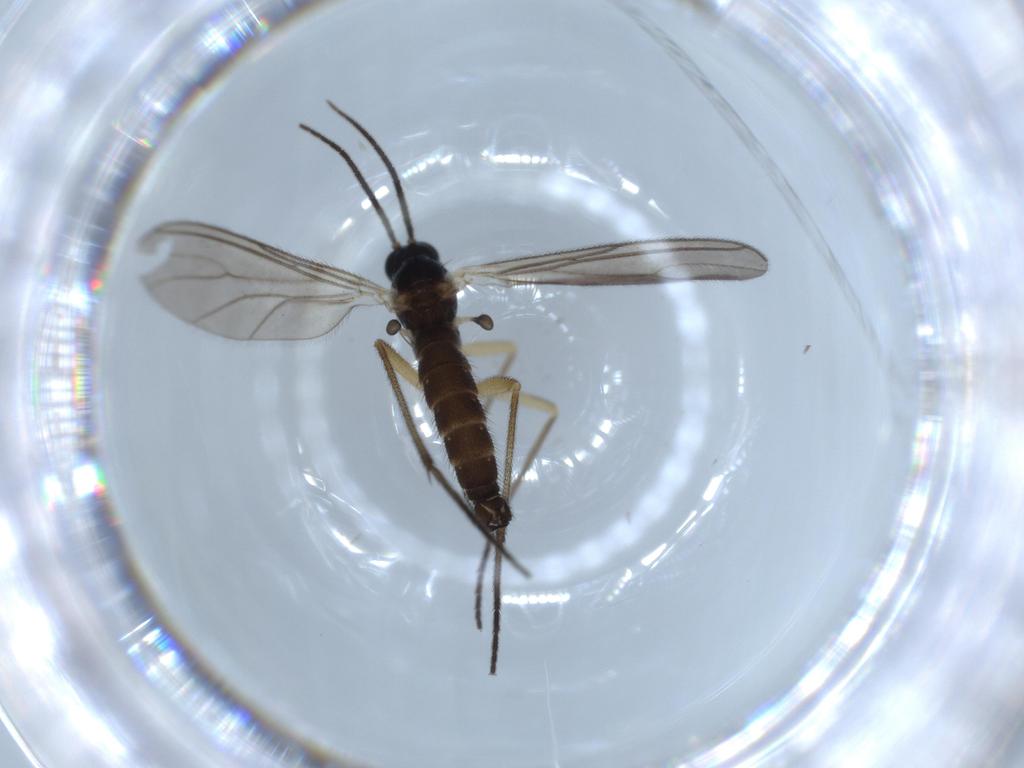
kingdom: Animalia
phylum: Arthropoda
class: Insecta
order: Diptera
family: Sciaridae
